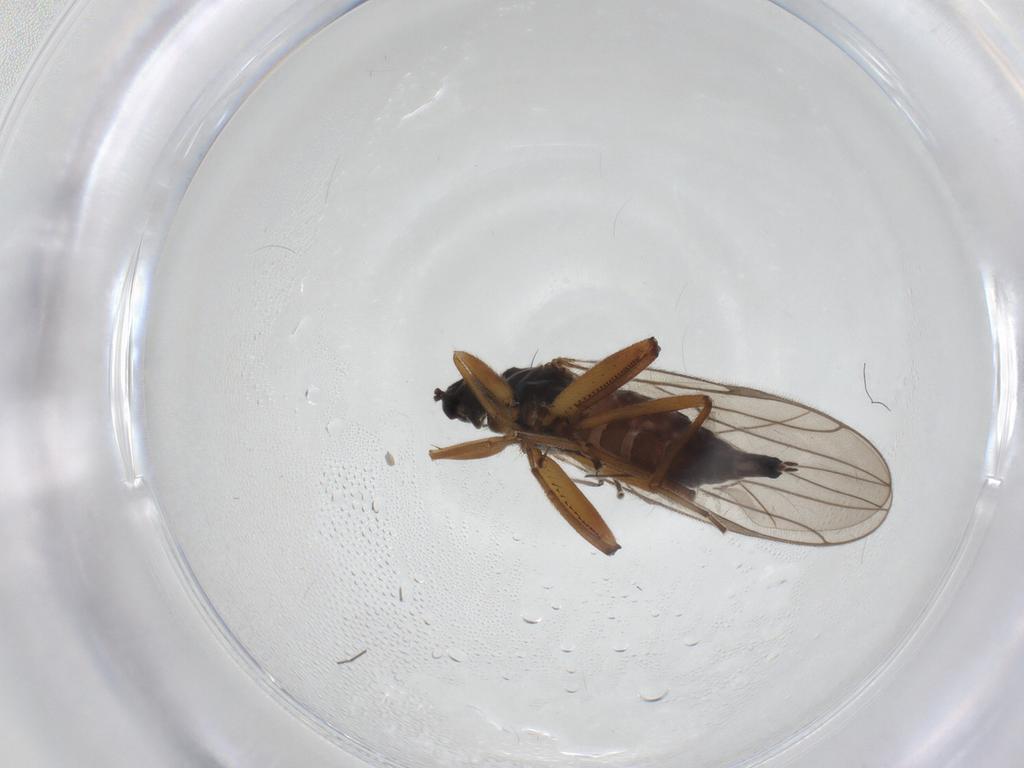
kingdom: Animalia
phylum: Arthropoda
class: Insecta
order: Diptera
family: Hybotidae
